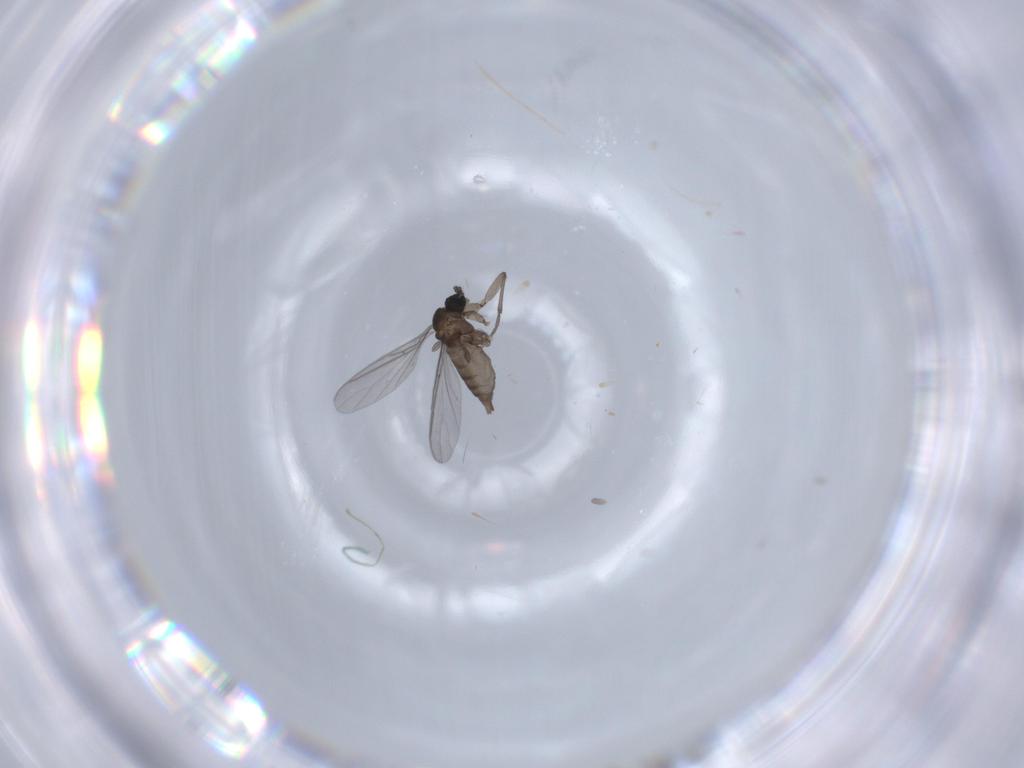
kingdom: Animalia
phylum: Arthropoda
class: Insecta
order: Diptera
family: Sciaridae
